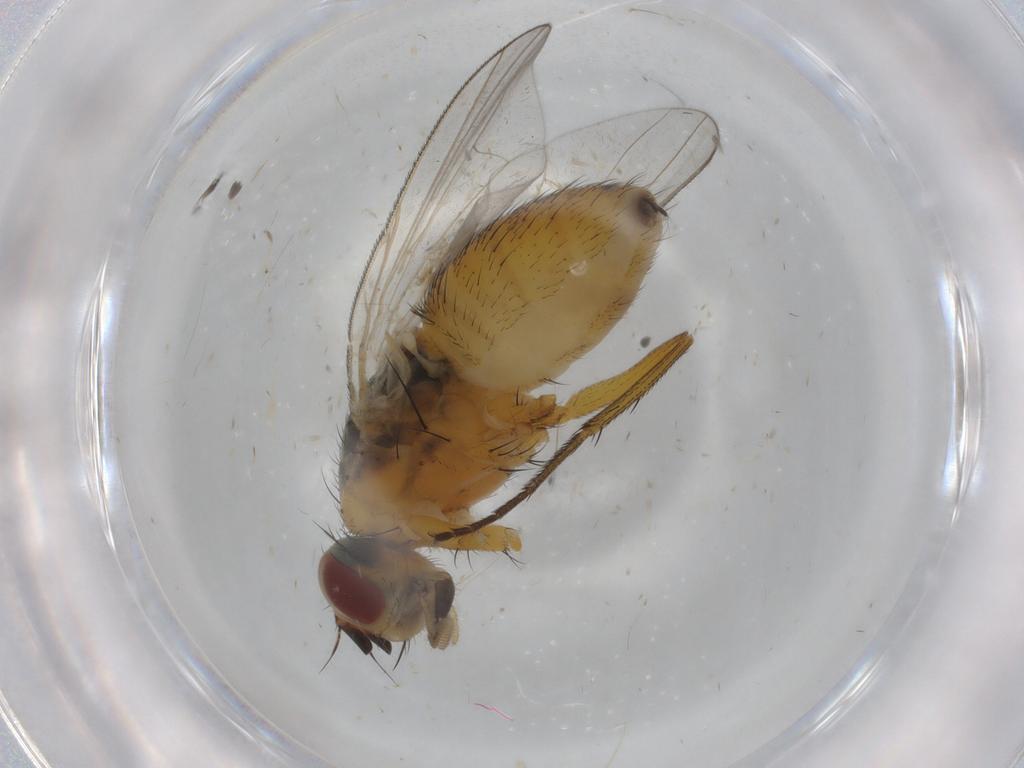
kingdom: Animalia
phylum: Arthropoda
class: Insecta
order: Diptera
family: Muscidae
